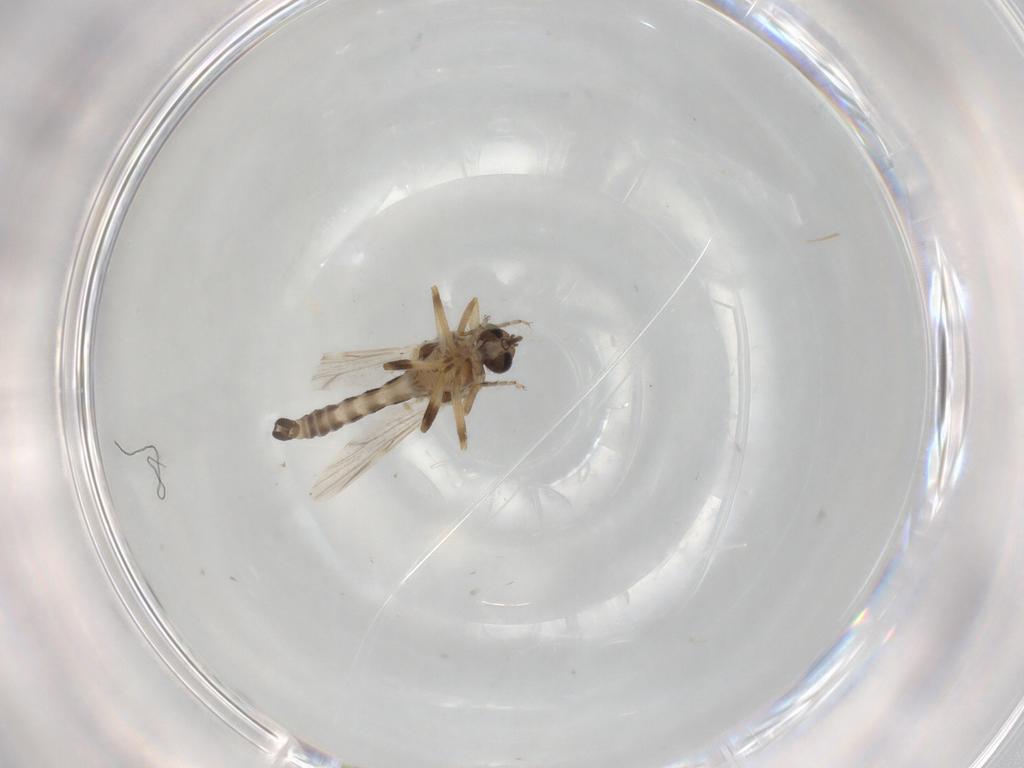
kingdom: Animalia
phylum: Arthropoda
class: Insecta
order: Diptera
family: Ceratopogonidae
